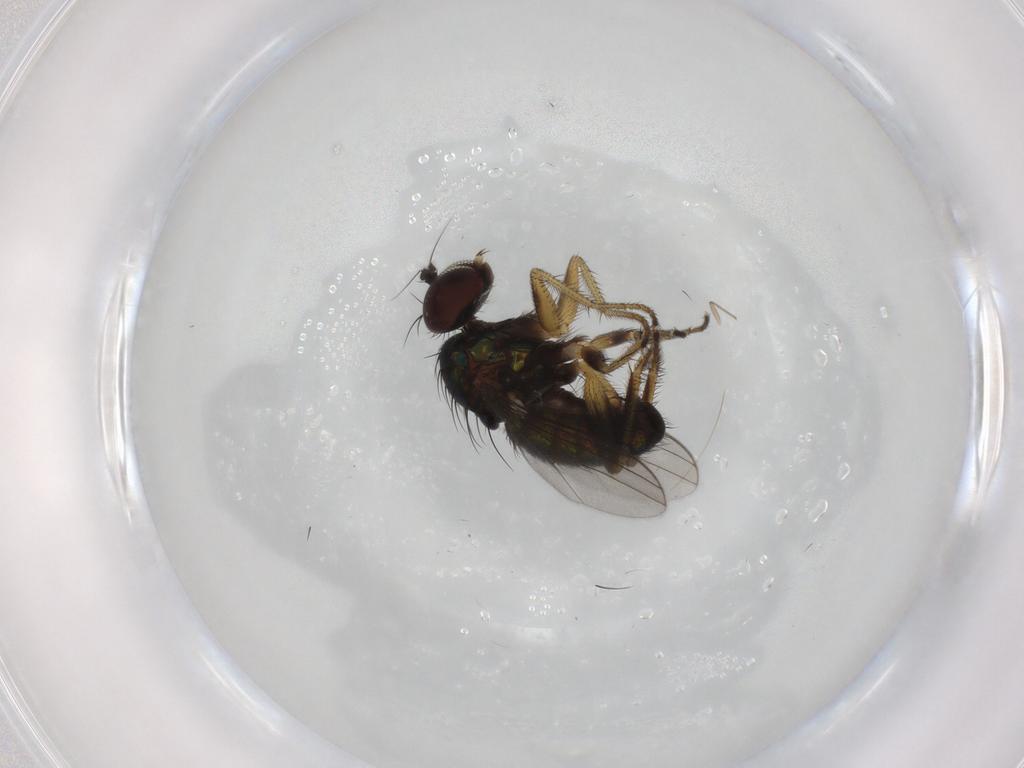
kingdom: Animalia
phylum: Arthropoda
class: Insecta
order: Diptera
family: Dolichopodidae
